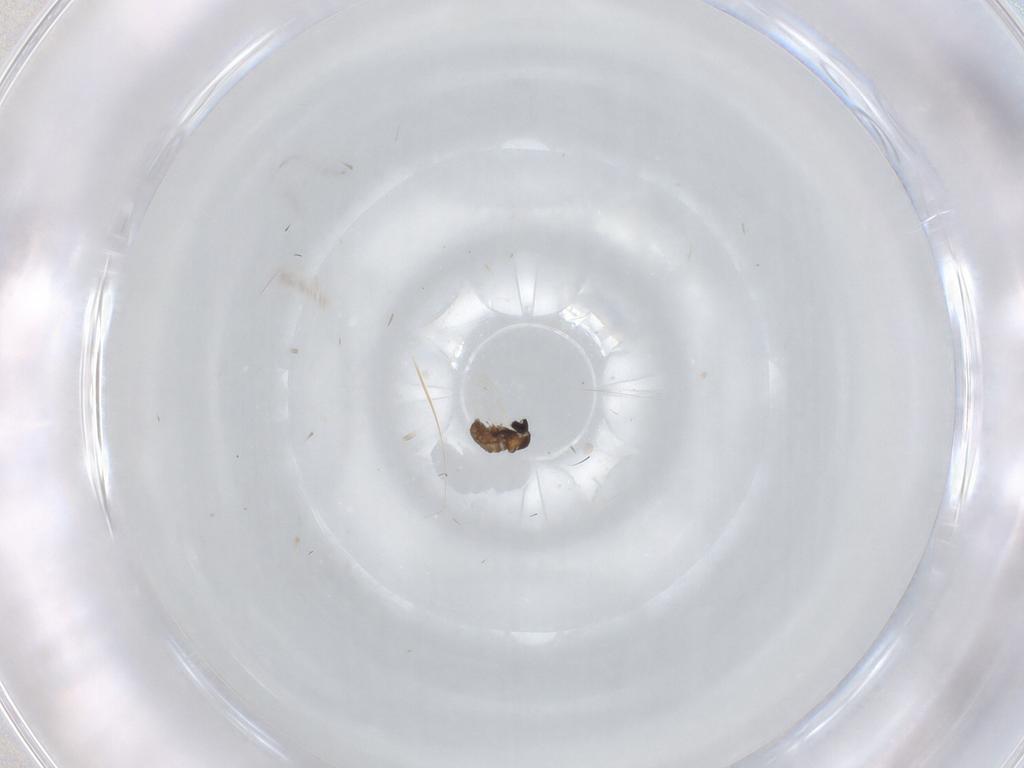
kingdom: Animalia
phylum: Arthropoda
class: Insecta
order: Diptera
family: Cecidomyiidae
